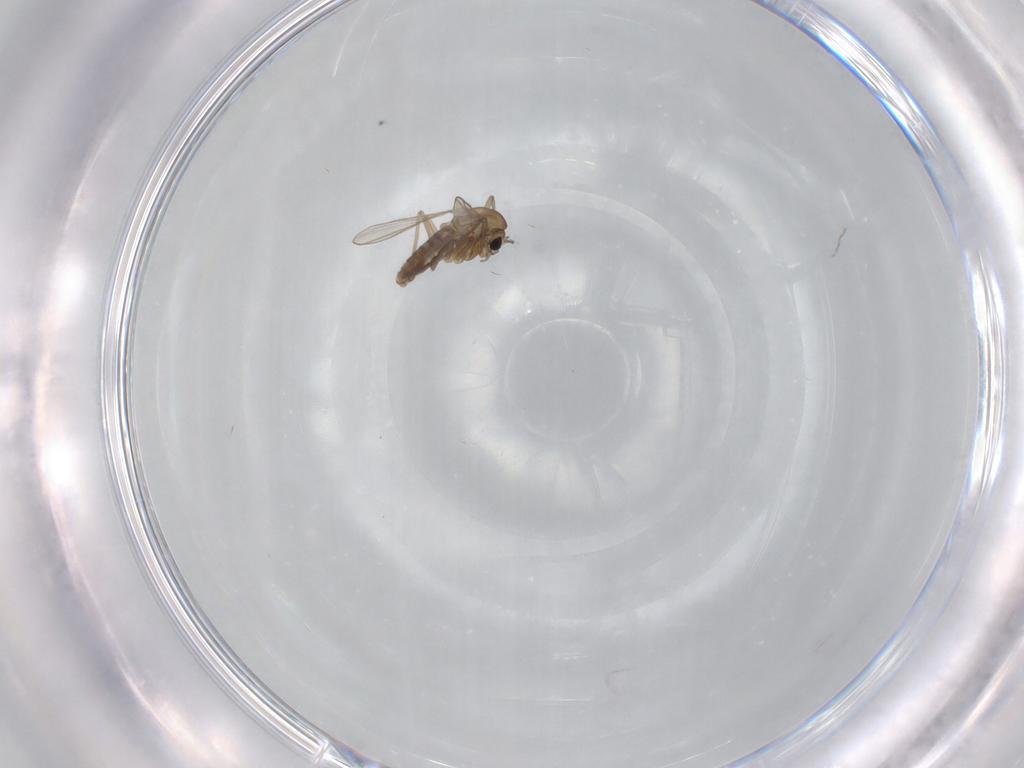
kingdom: Animalia
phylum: Arthropoda
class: Insecta
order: Diptera
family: Chironomidae
